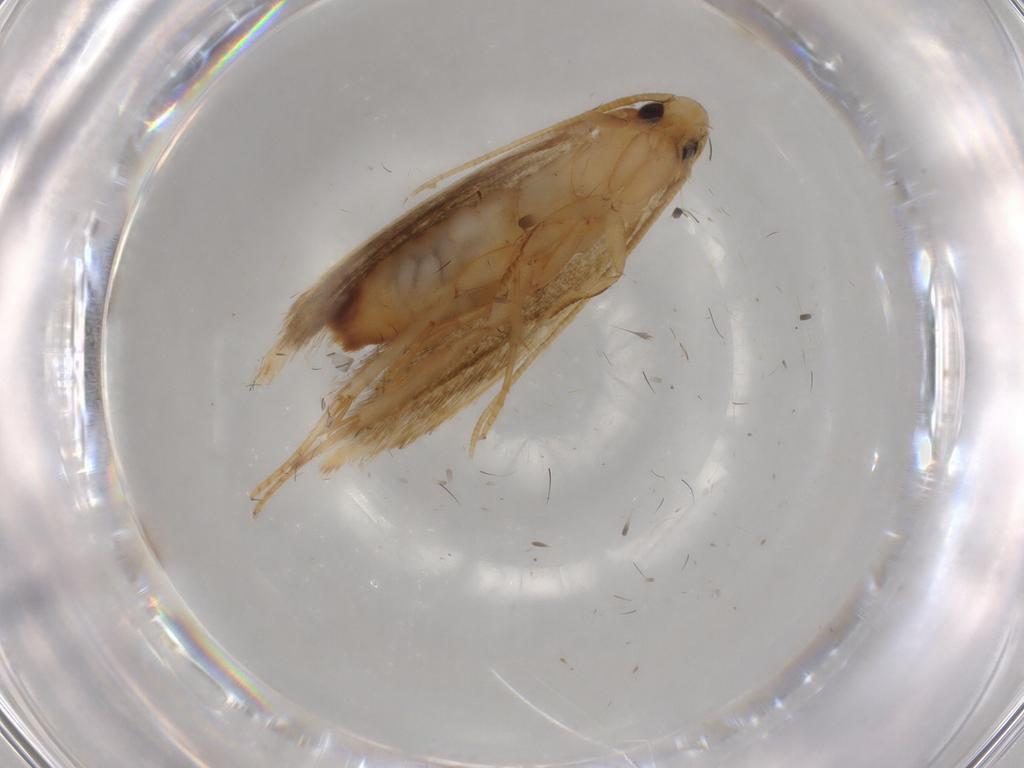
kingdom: Animalia
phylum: Arthropoda
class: Insecta
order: Lepidoptera
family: Tineidae
